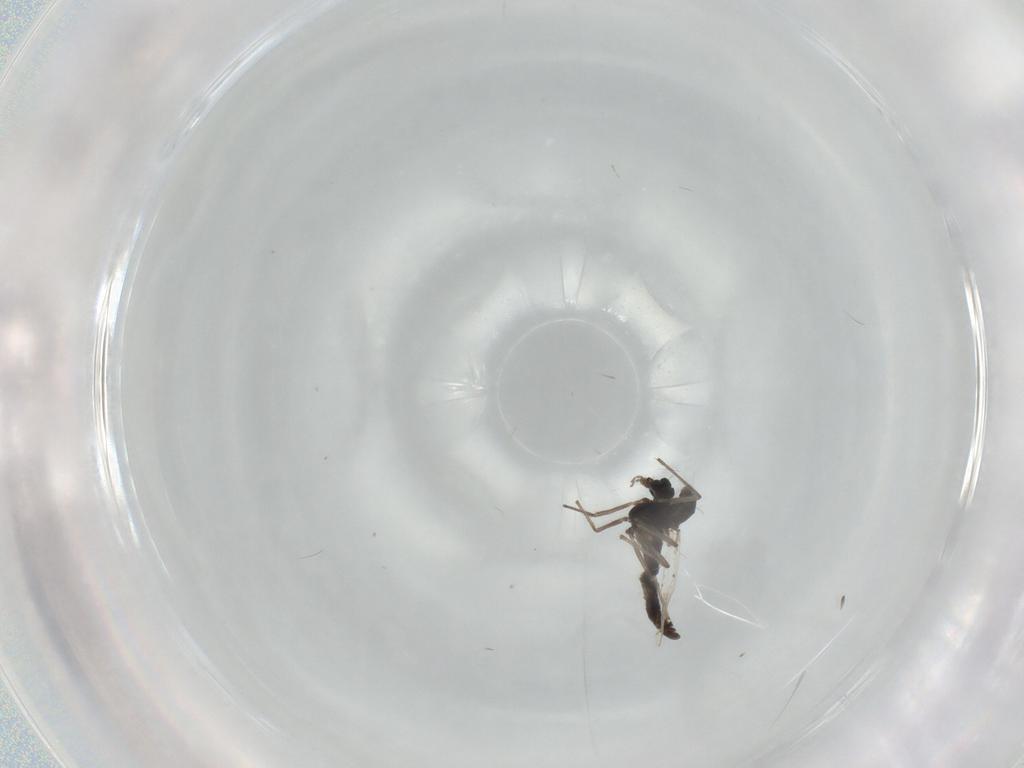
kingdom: Animalia
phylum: Arthropoda
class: Insecta
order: Diptera
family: Chironomidae
